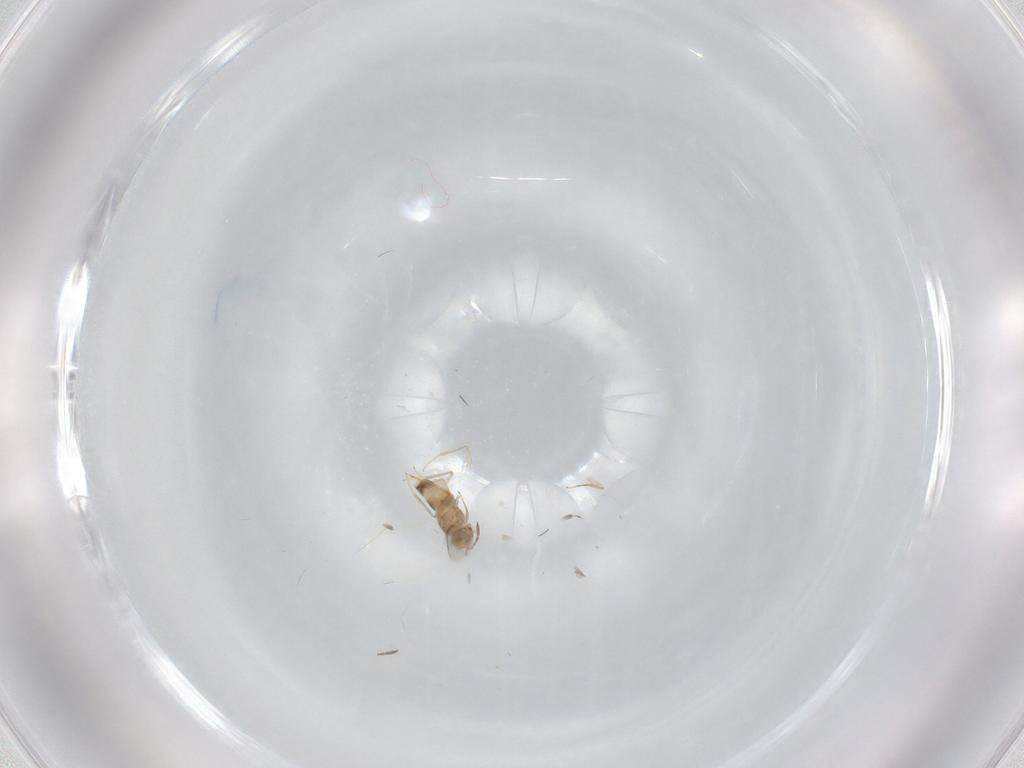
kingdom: Animalia
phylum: Arthropoda
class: Insecta
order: Hymenoptera
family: Aphelinidae
